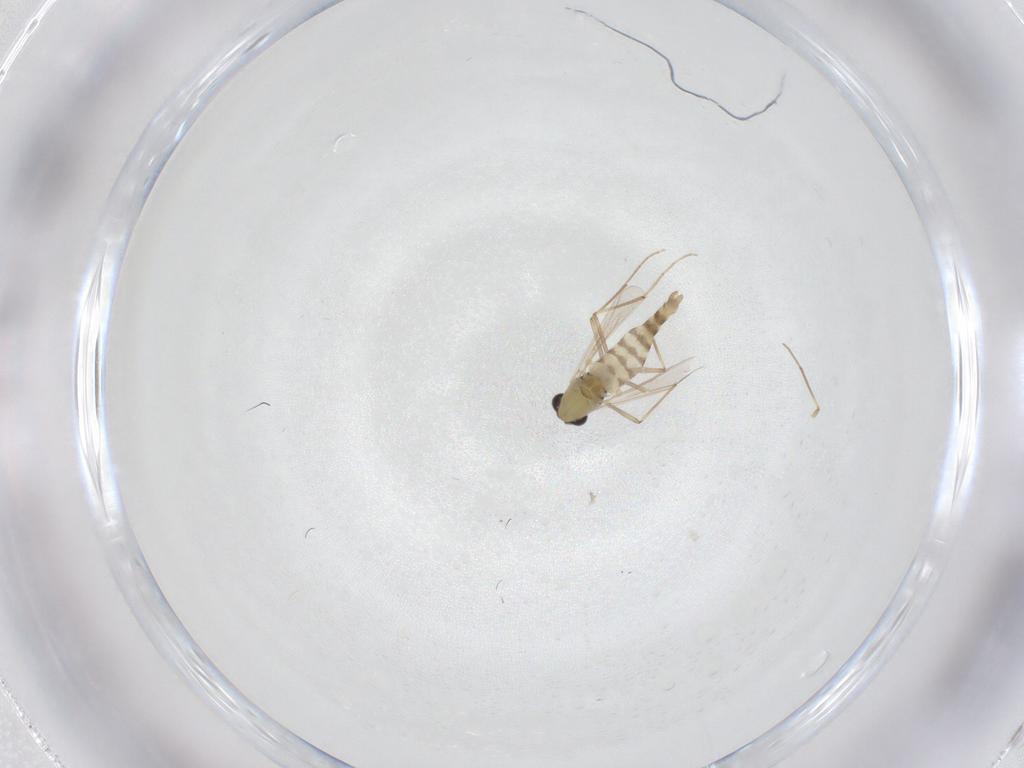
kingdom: Animalia
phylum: Arthropoda
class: Insecta
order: Diptera
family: Chironomidae
